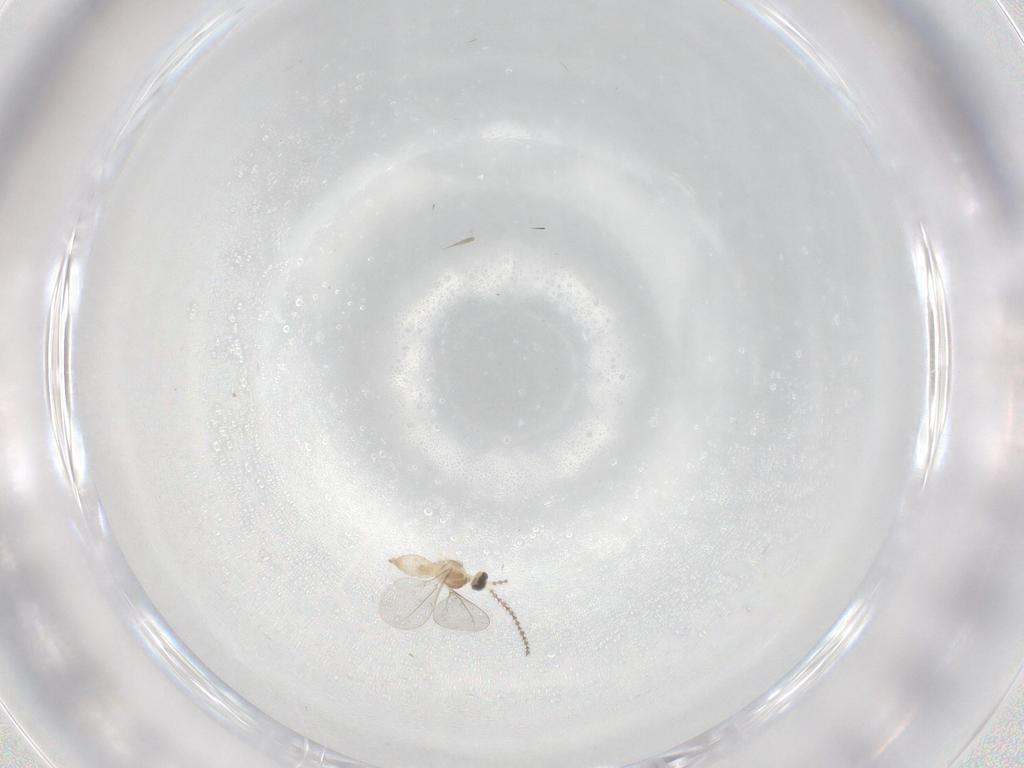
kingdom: Animalia
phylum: Arthropoda
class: Insecta
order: Diptera
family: Cecidomyiidae
